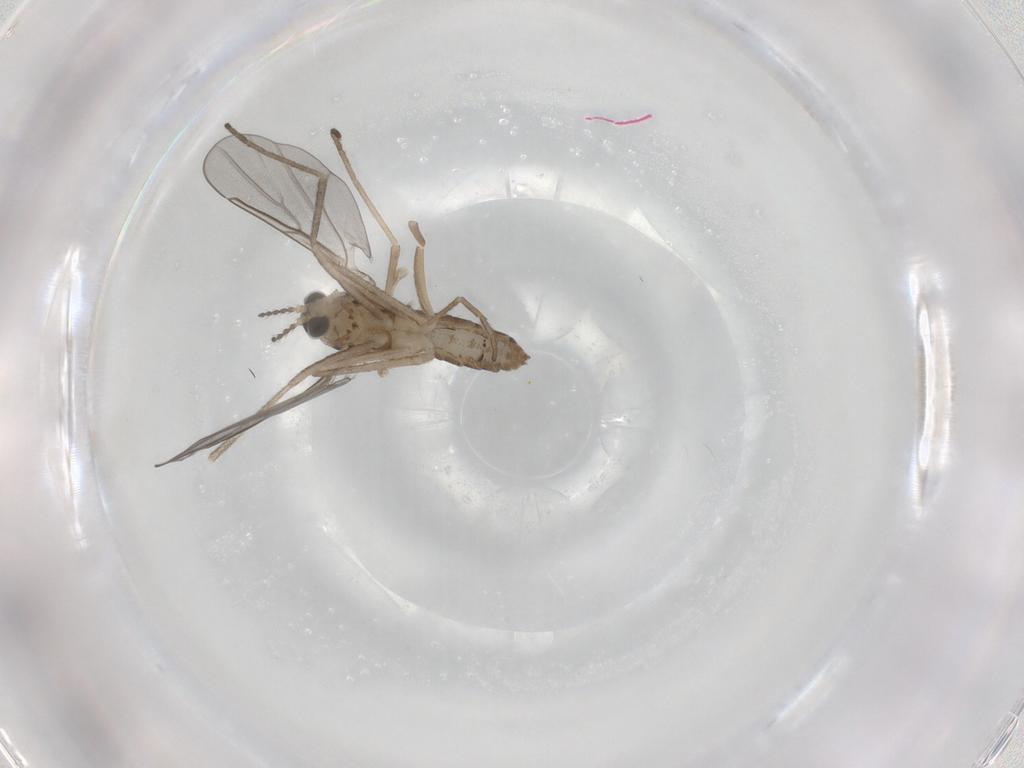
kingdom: Animalia
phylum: Arthropoda
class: Insecta
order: Diptera
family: Cecidomyiidae
